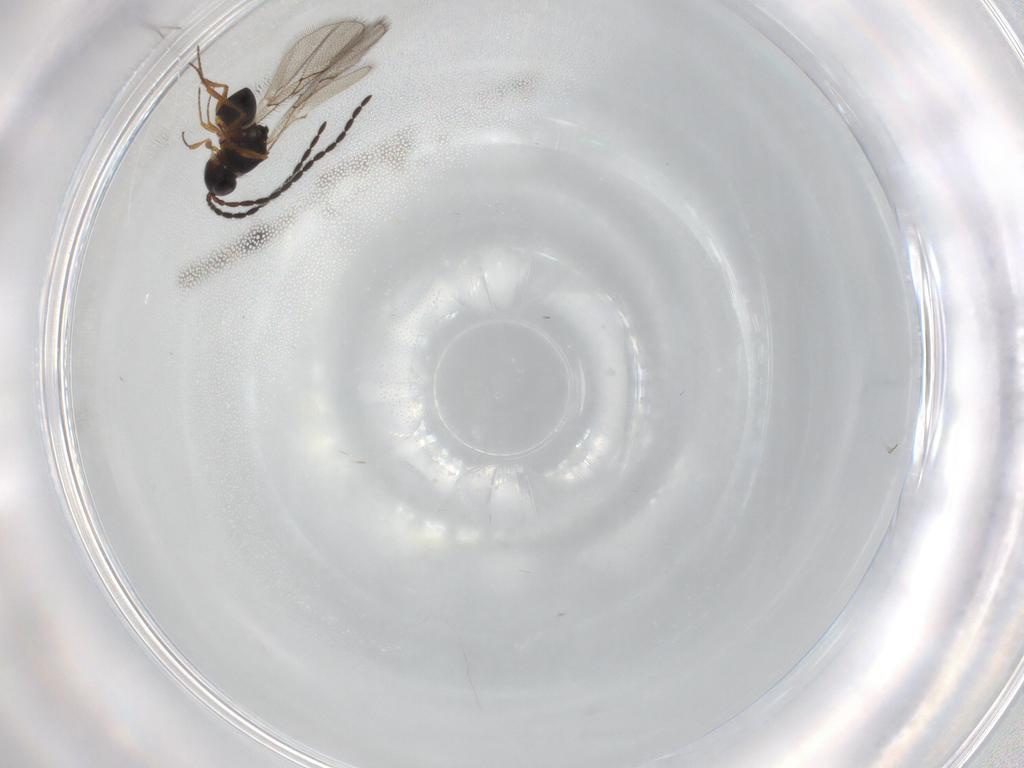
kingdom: Animalia
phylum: Arthropoda
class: Insecta
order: Hymenoptera
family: Figitidae
